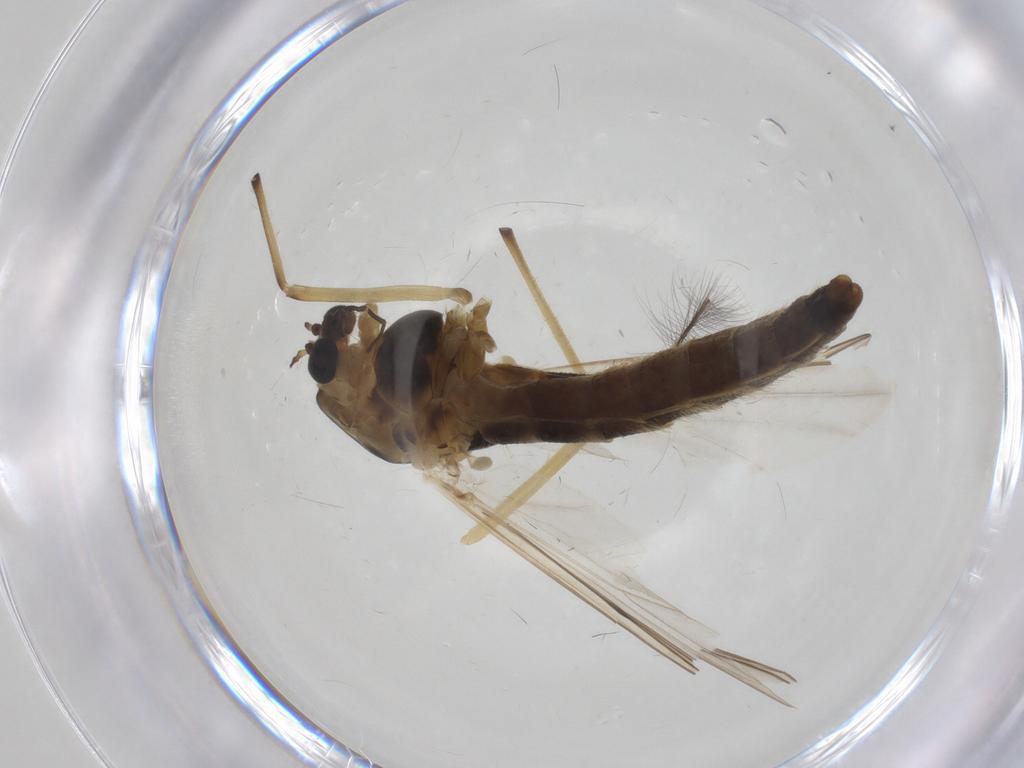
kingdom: Animalia
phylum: Arthropoda
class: Insecta
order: Diptera
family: Chironomidae
